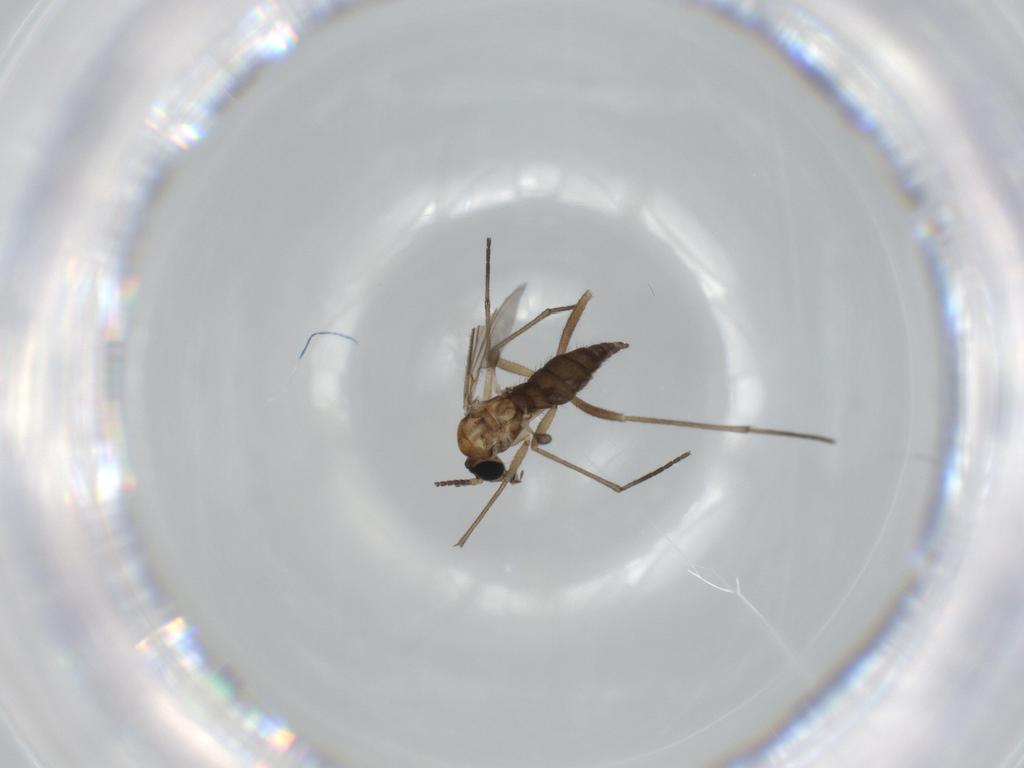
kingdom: Animalia
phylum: Arthropoda
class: Insecta
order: Diptera
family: Sciaridae
